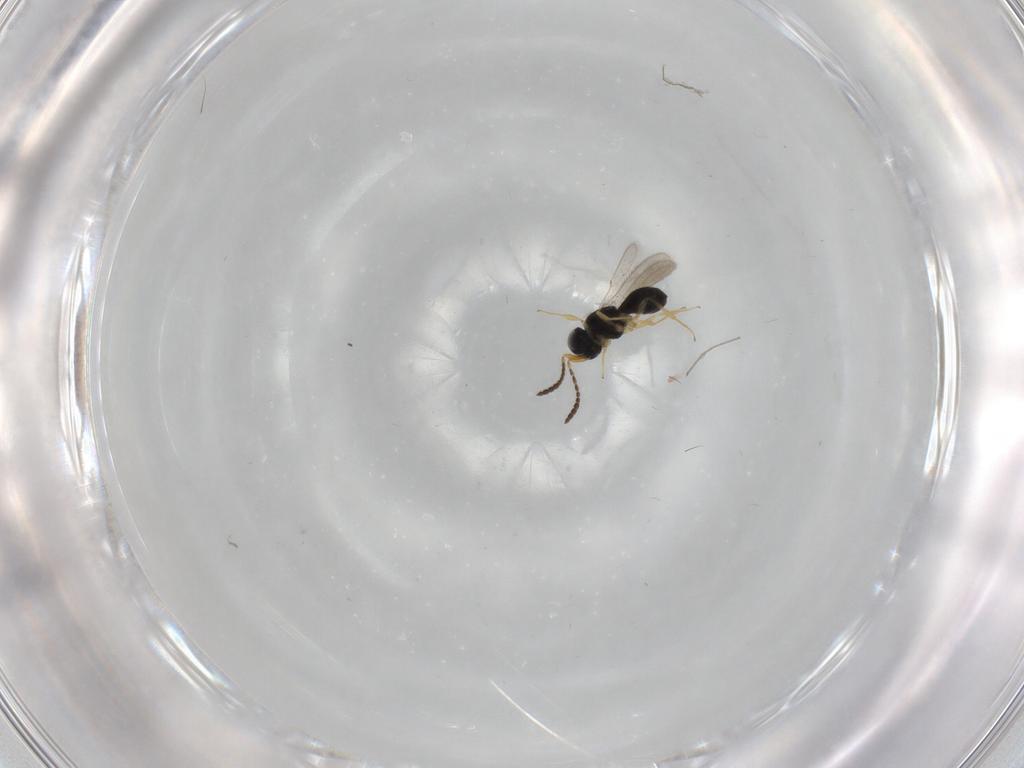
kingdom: Animalia
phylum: Arthropoda
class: Insecta
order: Hymenoptera
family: Scelionidae
